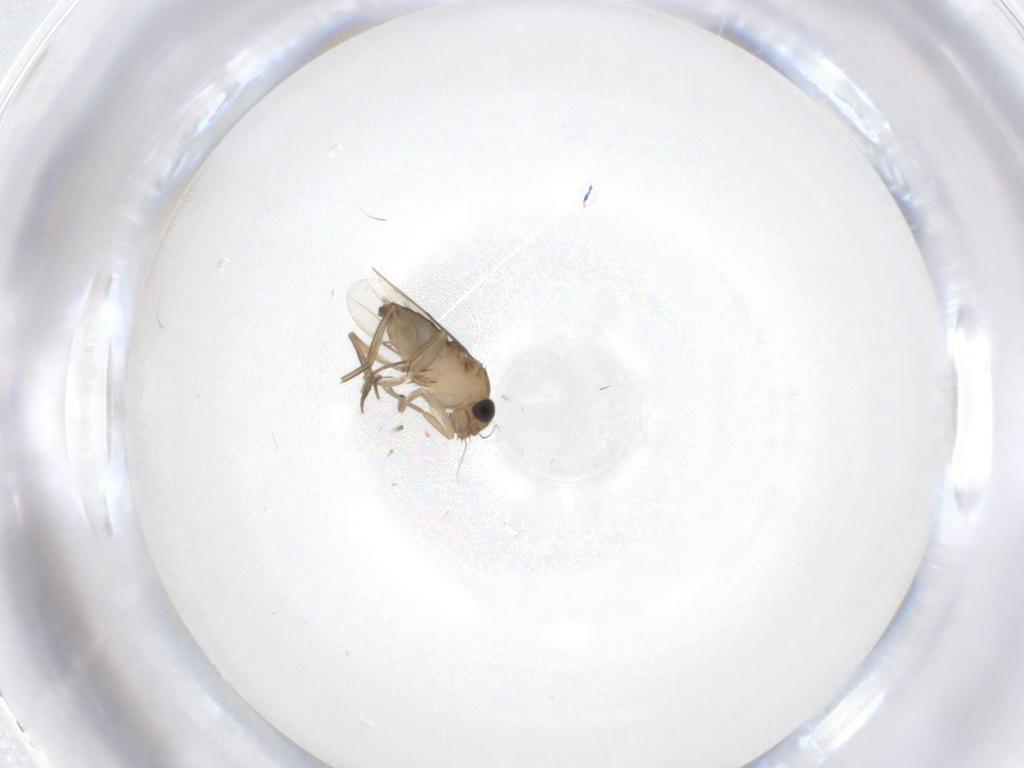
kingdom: Animalia
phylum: Arthropoda
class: Insecta
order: Diptera
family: Phoridae
